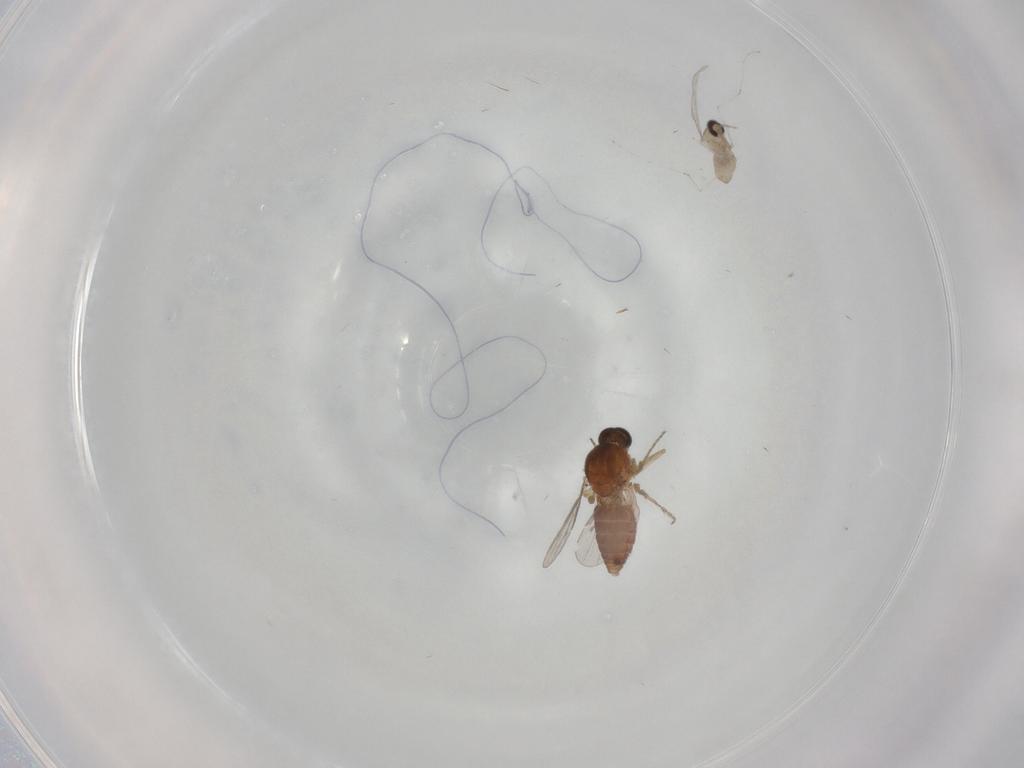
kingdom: Animalia
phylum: Arthropoda
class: Insecta
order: Diptera
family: Ceratopogonidae
